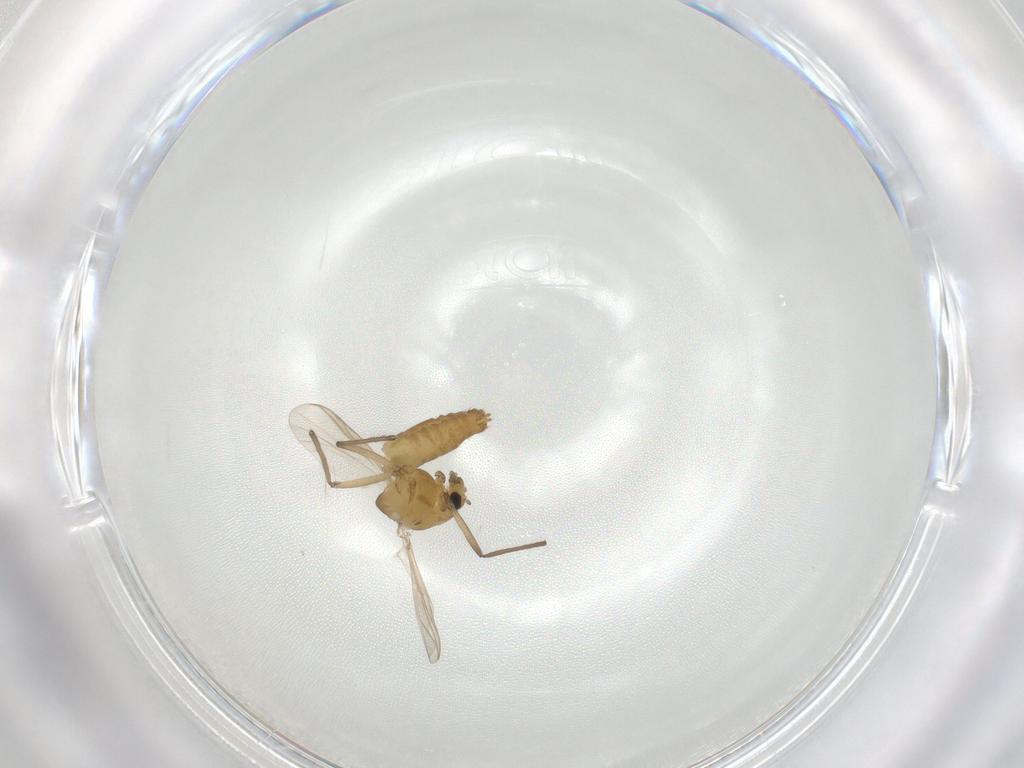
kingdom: Animalia
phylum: Arthropoda
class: Insecta
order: Diptera
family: Chironomidae
